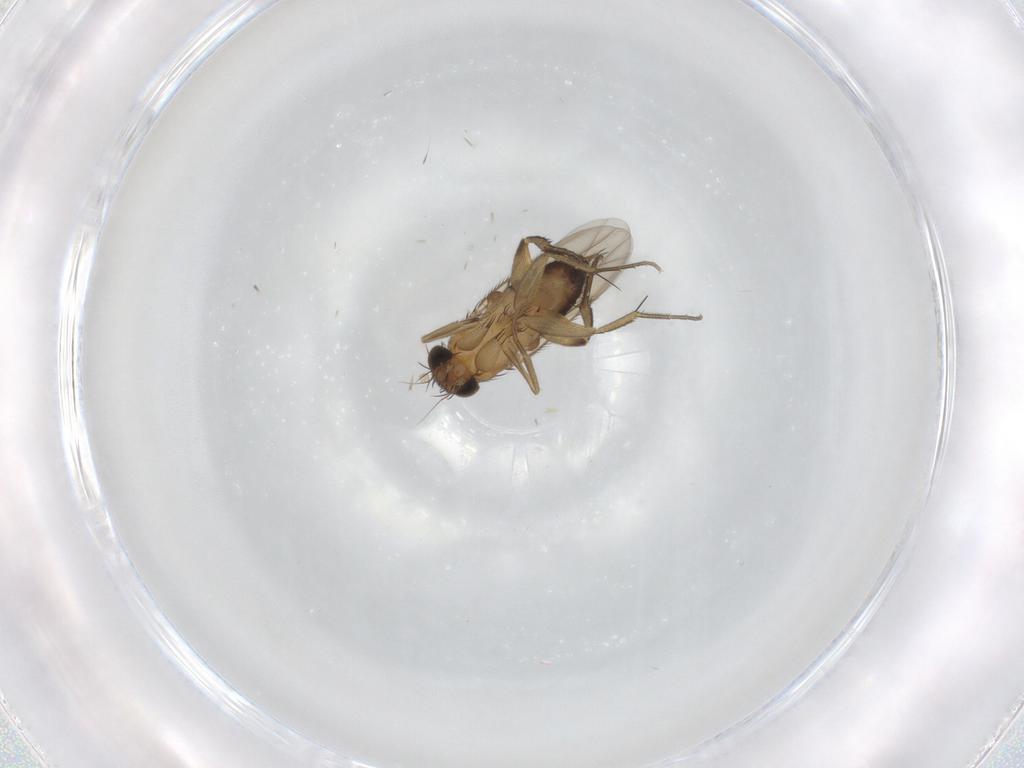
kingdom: Animalia
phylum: Arthropoda
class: Insecta
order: Diptera
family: Phoridae
